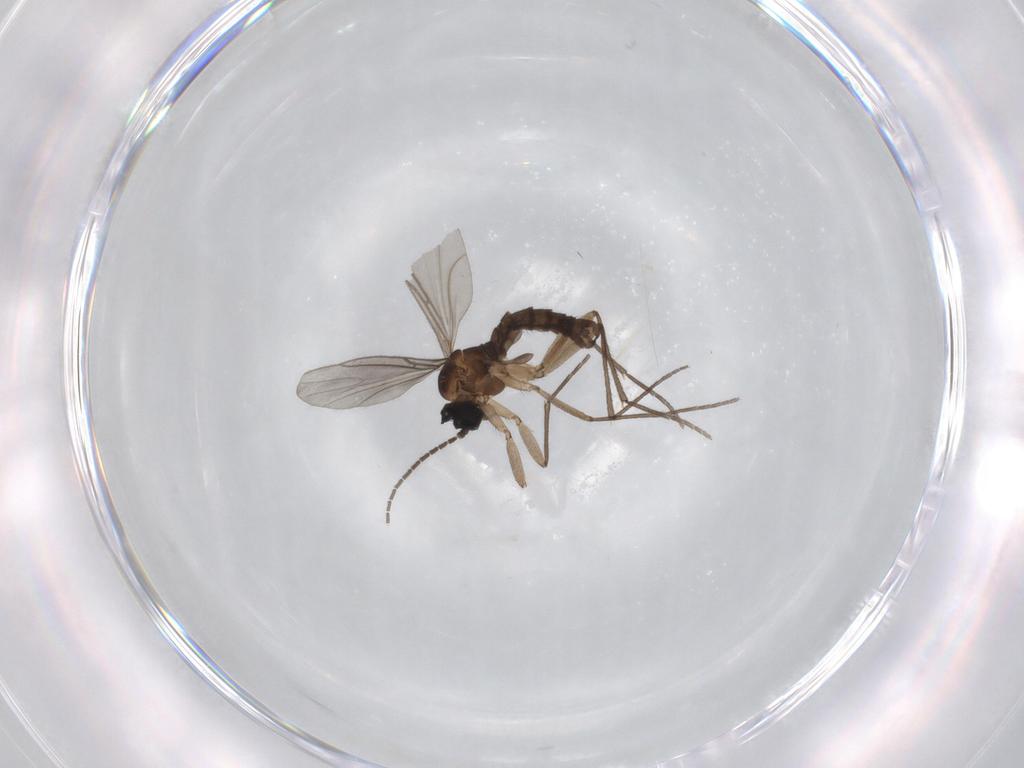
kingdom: Animalia
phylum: Arthropoda
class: Insecta
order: Diptera
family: Sciaridae
